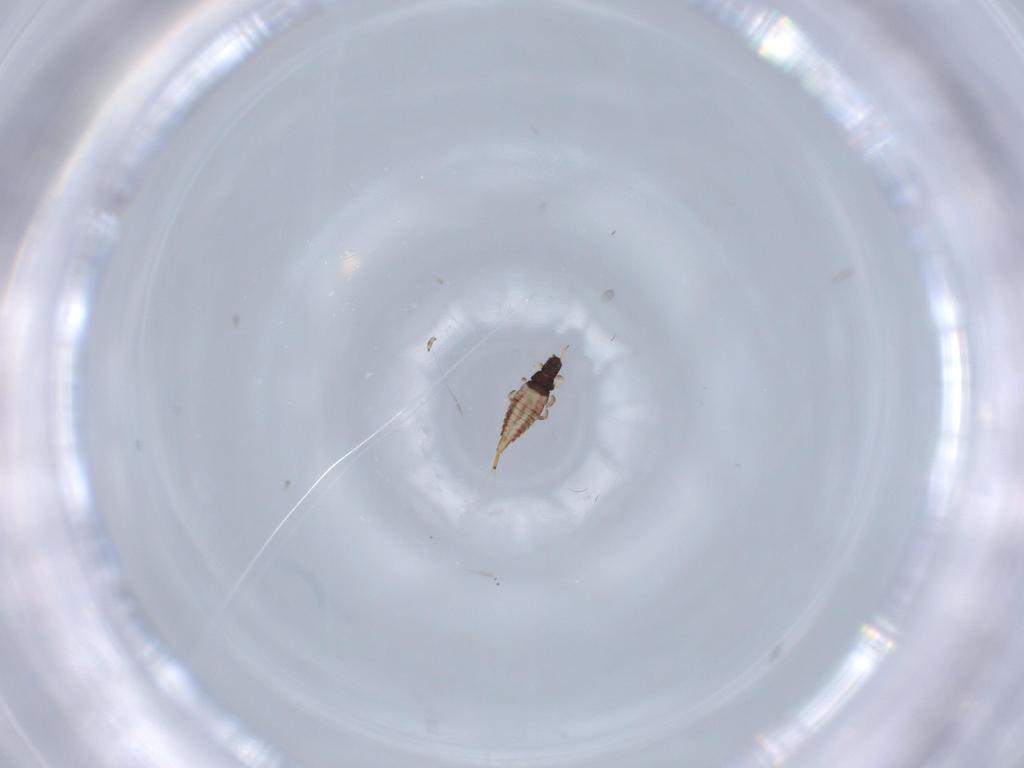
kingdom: Animalia
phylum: Arthropoda
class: Insecta
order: Thysanoptera
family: Phlaeothripidae
